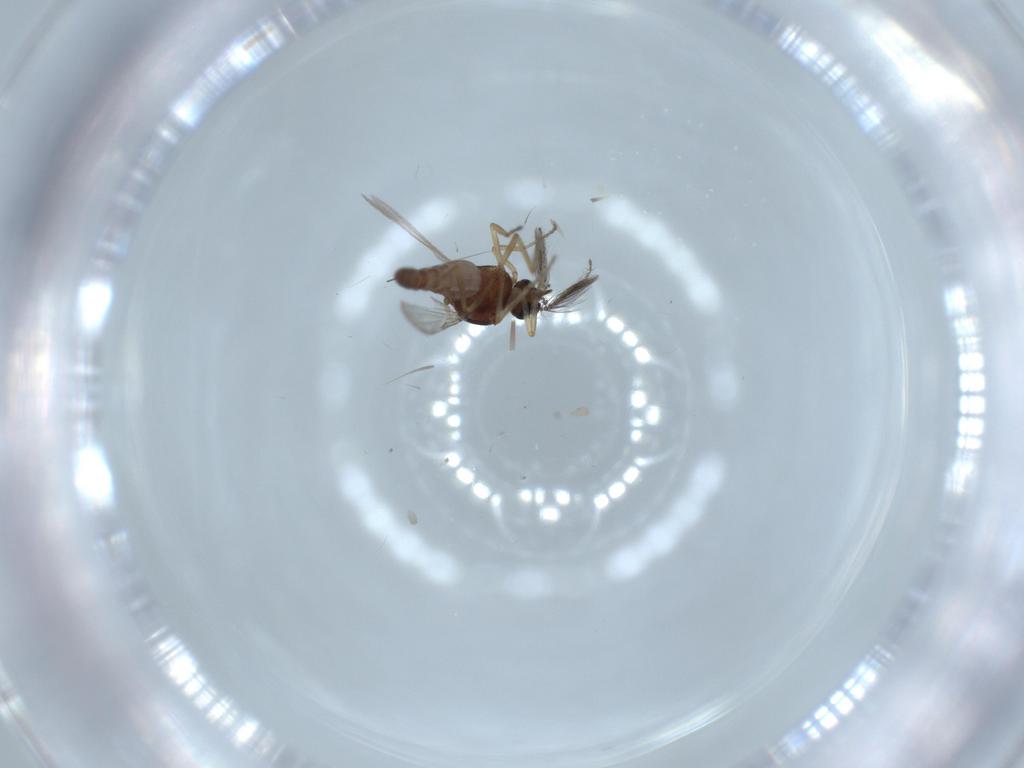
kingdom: Animalia
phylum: Arthropoda
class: Insecta
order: Diptera
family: Ceratopogonidae
